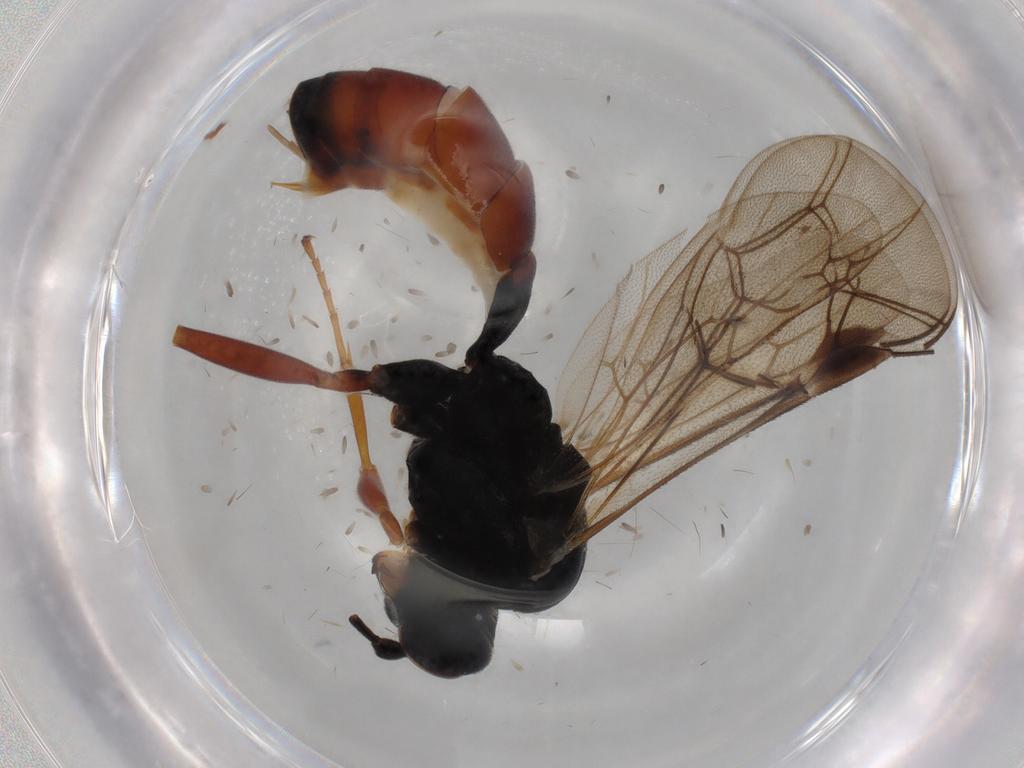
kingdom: Animalia
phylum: Arthropoda
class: Insecta
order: Hymenoptera
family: Ichneumonidae
